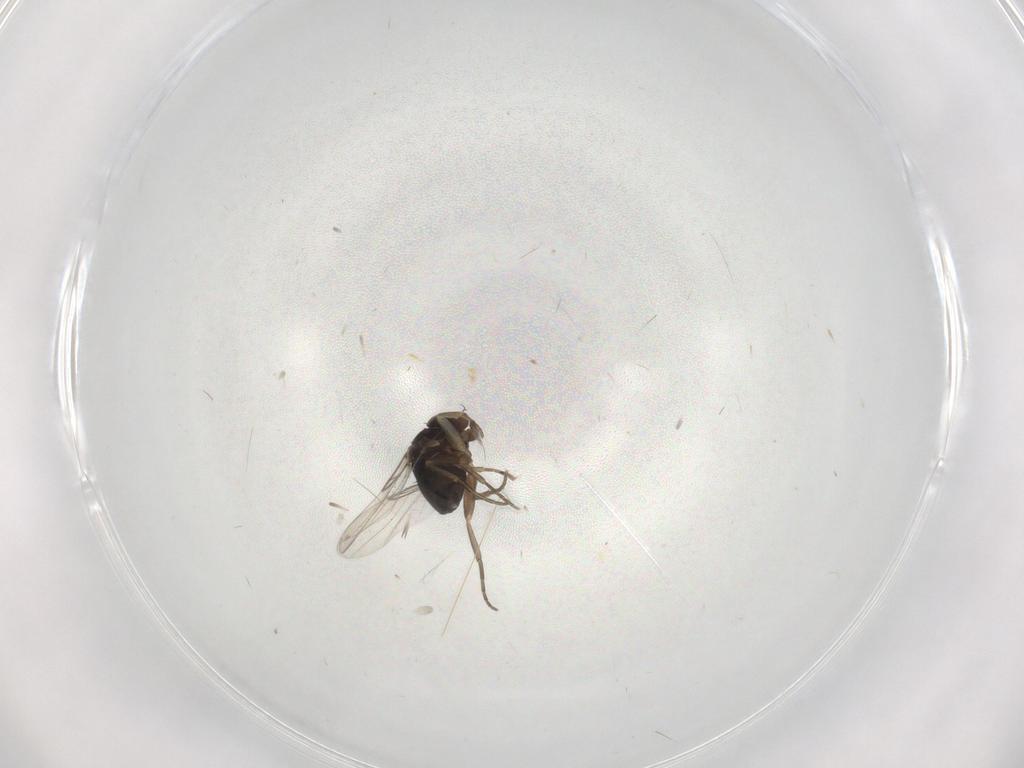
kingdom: Animalia
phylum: Arthropoda
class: Insecta
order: Diptera
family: Phoridae
